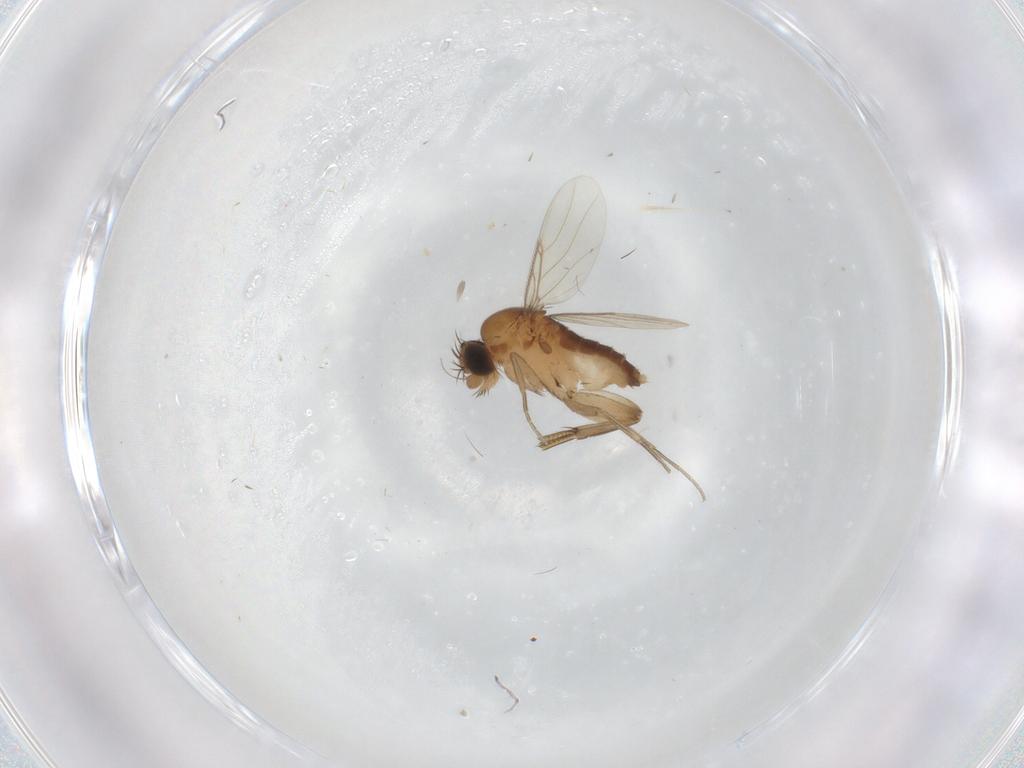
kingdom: Animalia
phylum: Arthropoda
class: Insecta
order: Diptera
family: Phoridae
